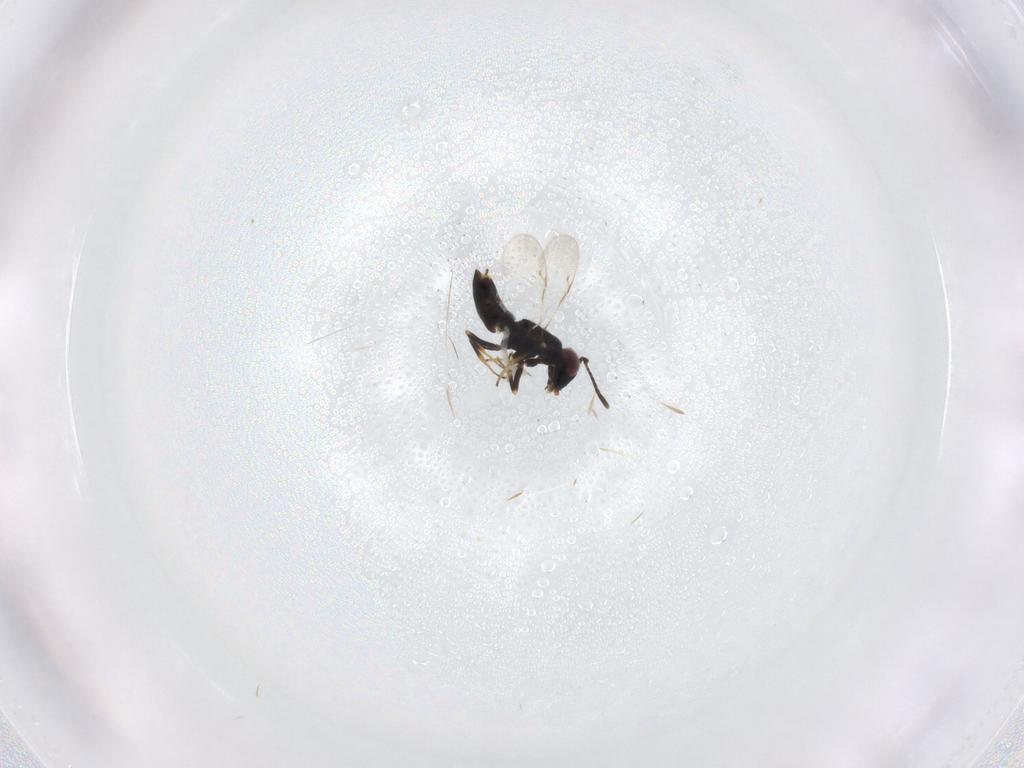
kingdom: Animalia
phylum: Arthropoda
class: Insecta
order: Hymenoptera
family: Encyrtidae
